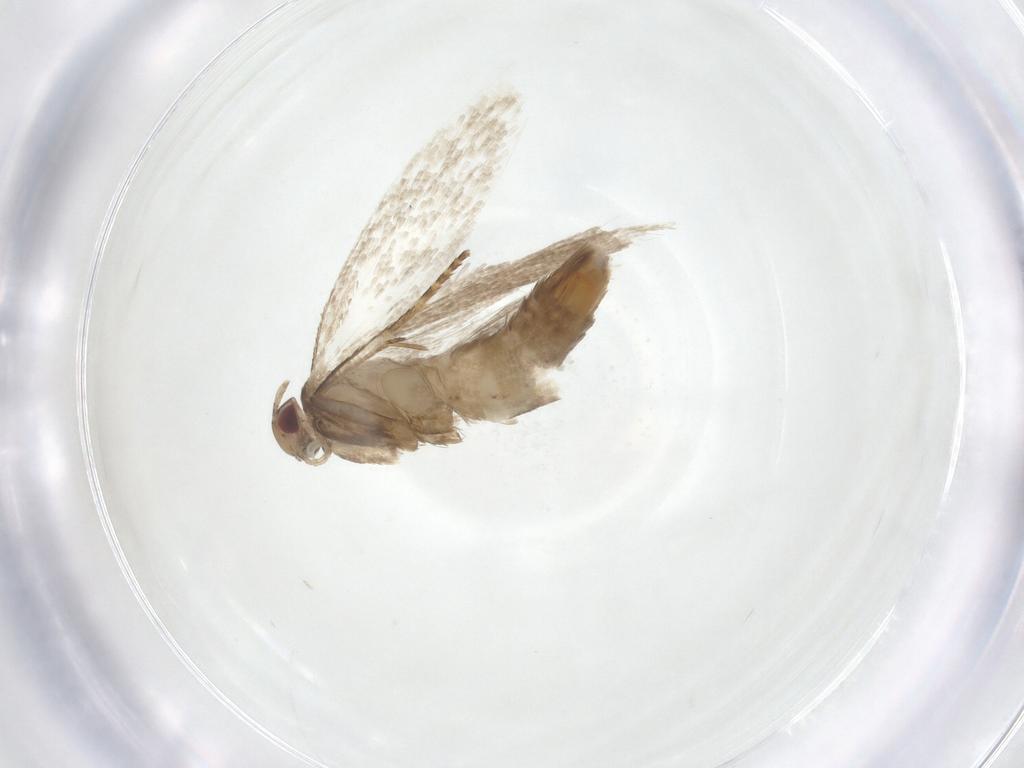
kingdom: Animalia
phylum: Arthropoda
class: Insecta
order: Lepidoptera
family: Gelechiidae
